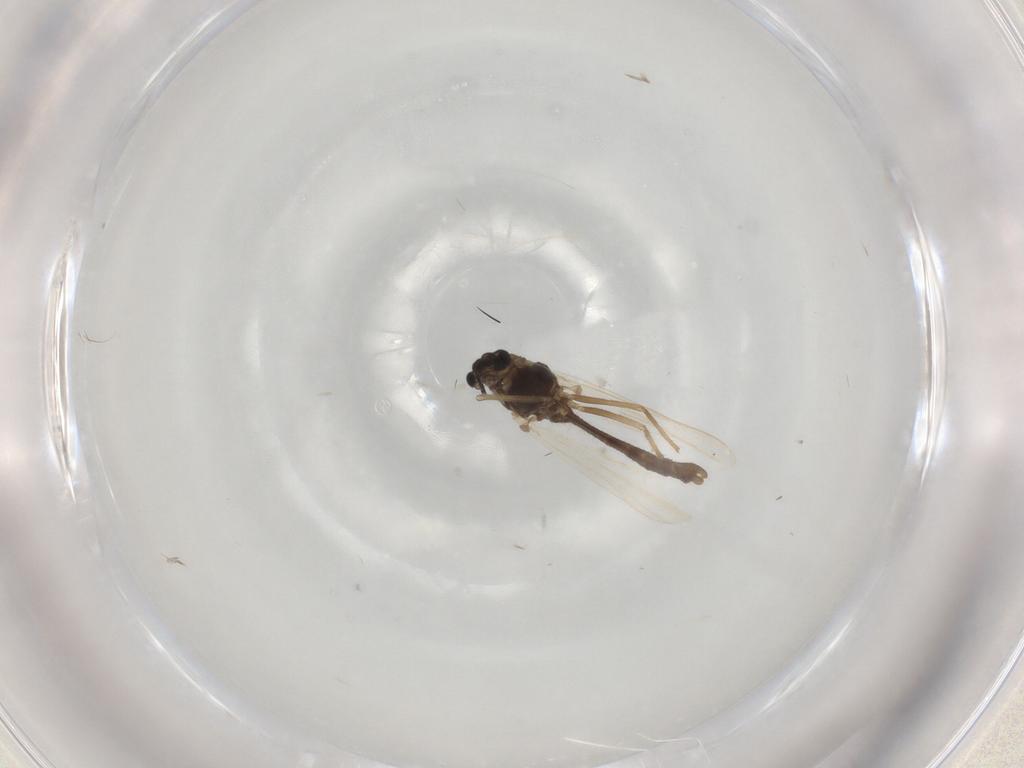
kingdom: Animalia
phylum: Arthropoda
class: Insecta
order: Diptera
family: Chironomidae
